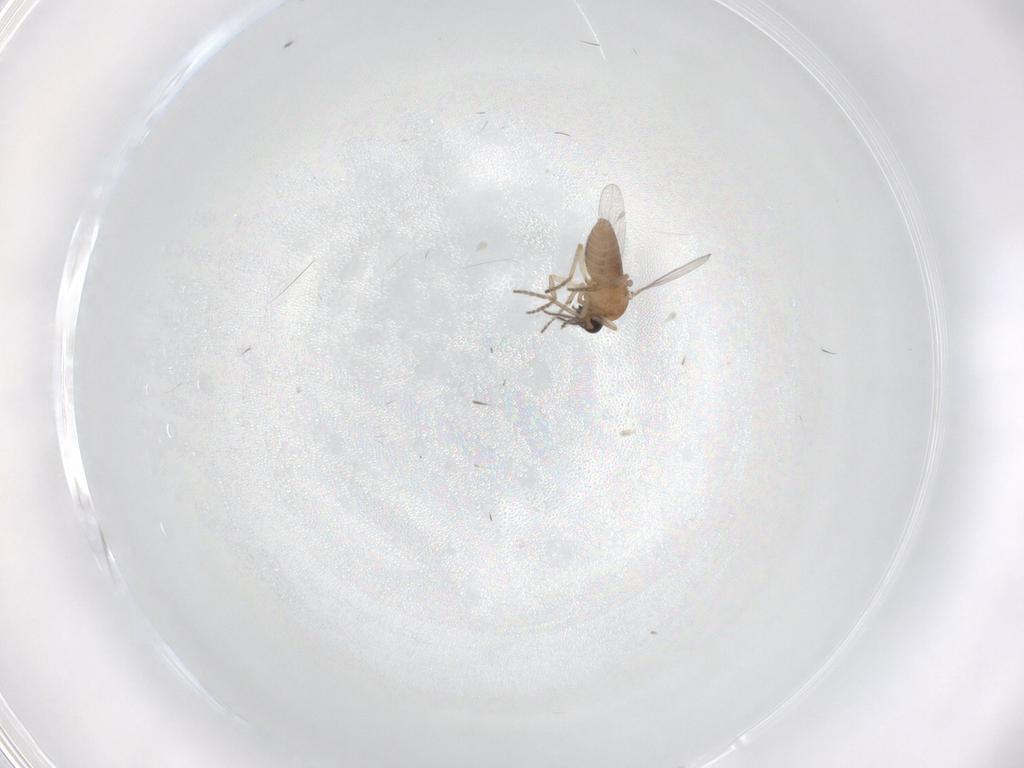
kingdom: Animalia
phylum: Arthropoda
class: Insecta
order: Diptera
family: Ceratopogonidae
